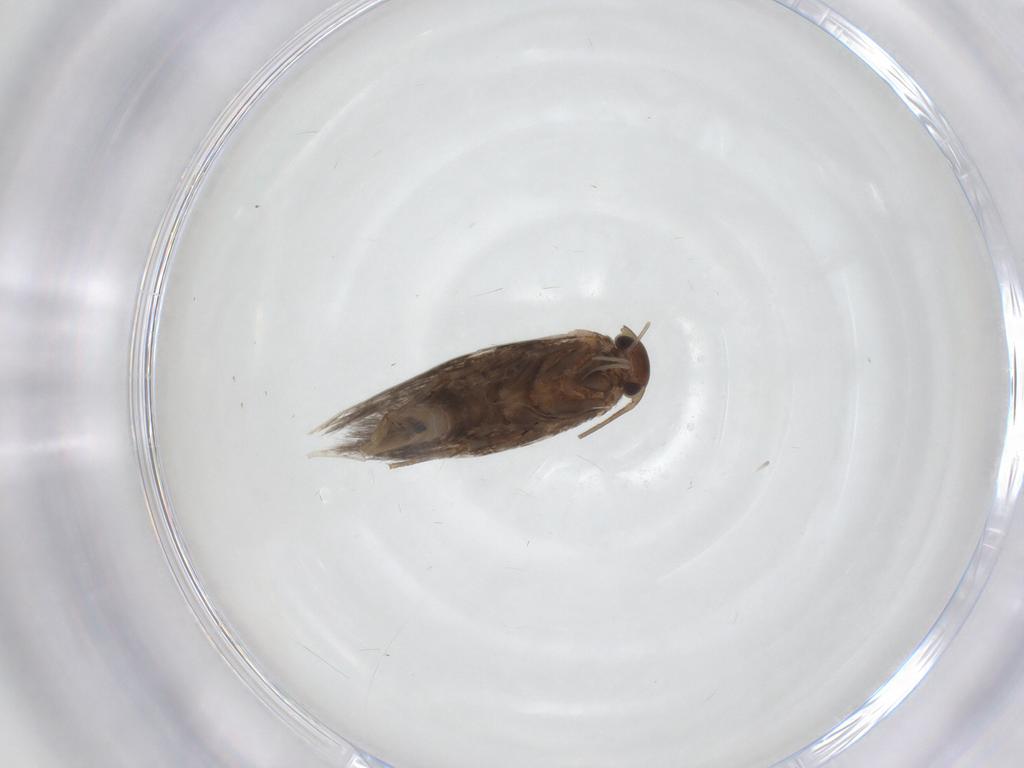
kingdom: Animalia
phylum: Arthropoda
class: Insecta
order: Lepidoptera
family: Elachistidae
